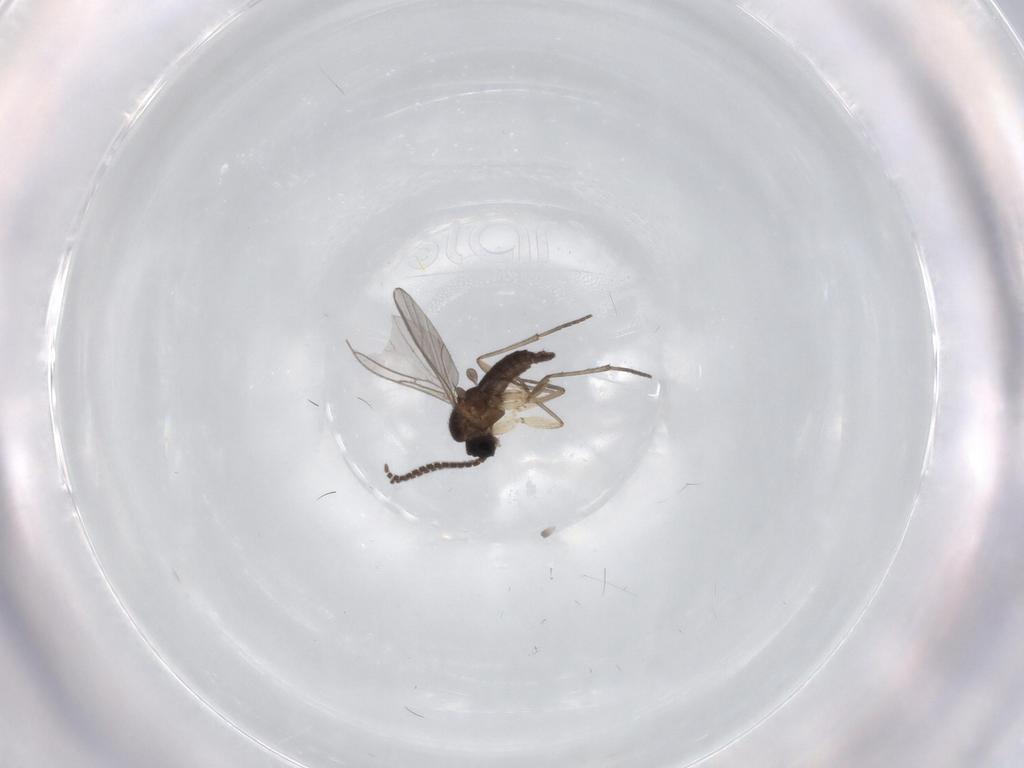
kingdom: Animalia
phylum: Arthropoda
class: Insecta
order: Diptera
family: Sciaridae
